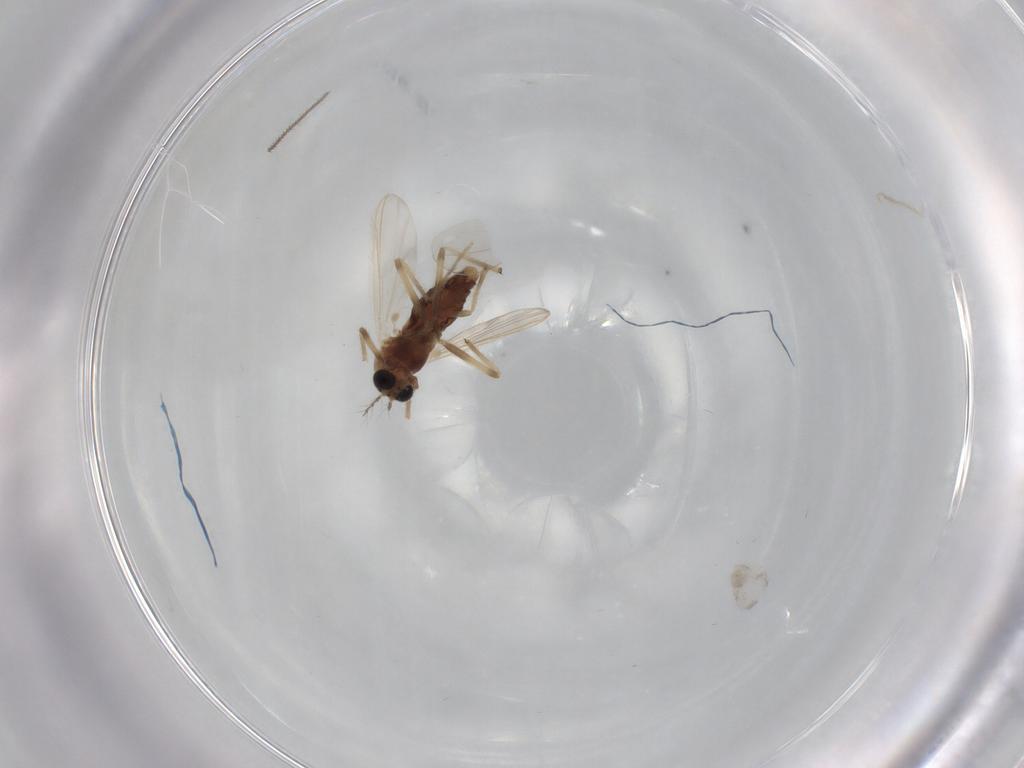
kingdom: Animalia
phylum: Arthropoda
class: Insecta
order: Diptera
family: Chironomidae
